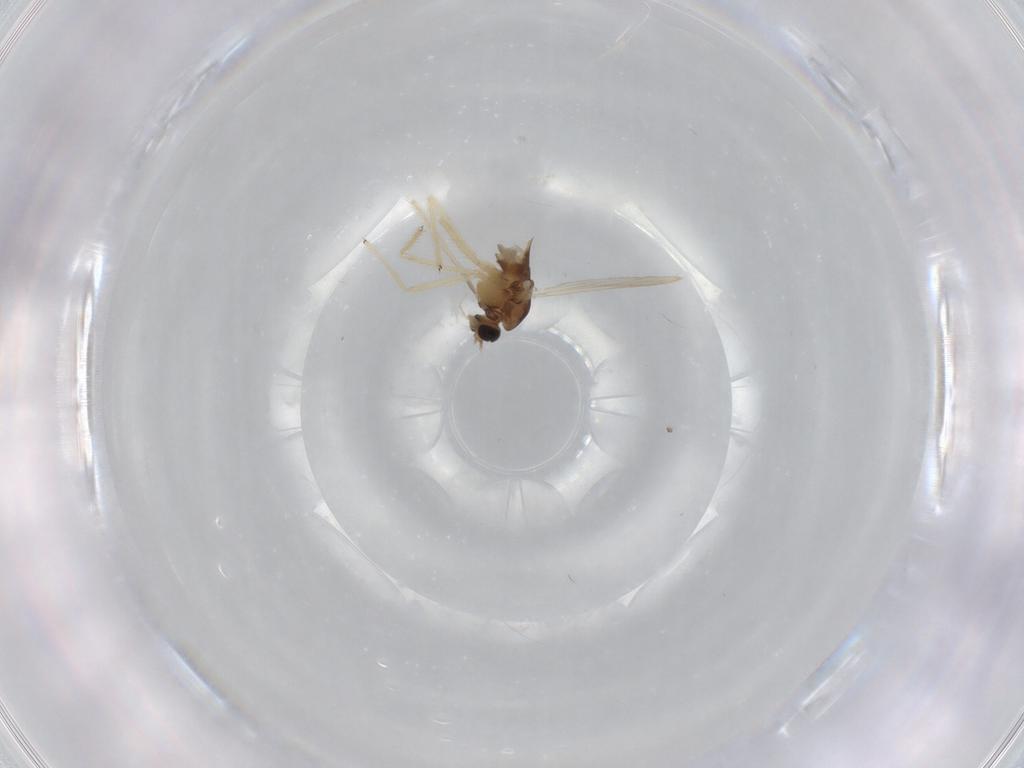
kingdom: Animalia
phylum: Arthropoda
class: Insecta
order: Diptera
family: Chironomidae
